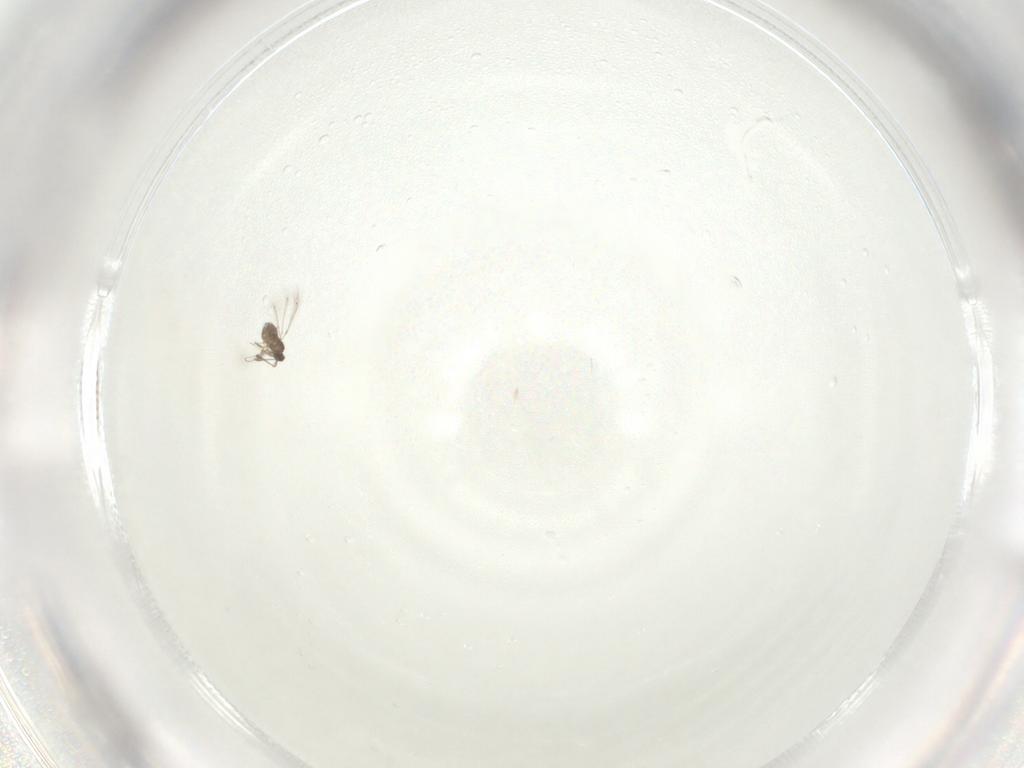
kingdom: Animalia
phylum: Arthropoda
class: Insecta
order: Hymenoptera
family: Mymaridae
